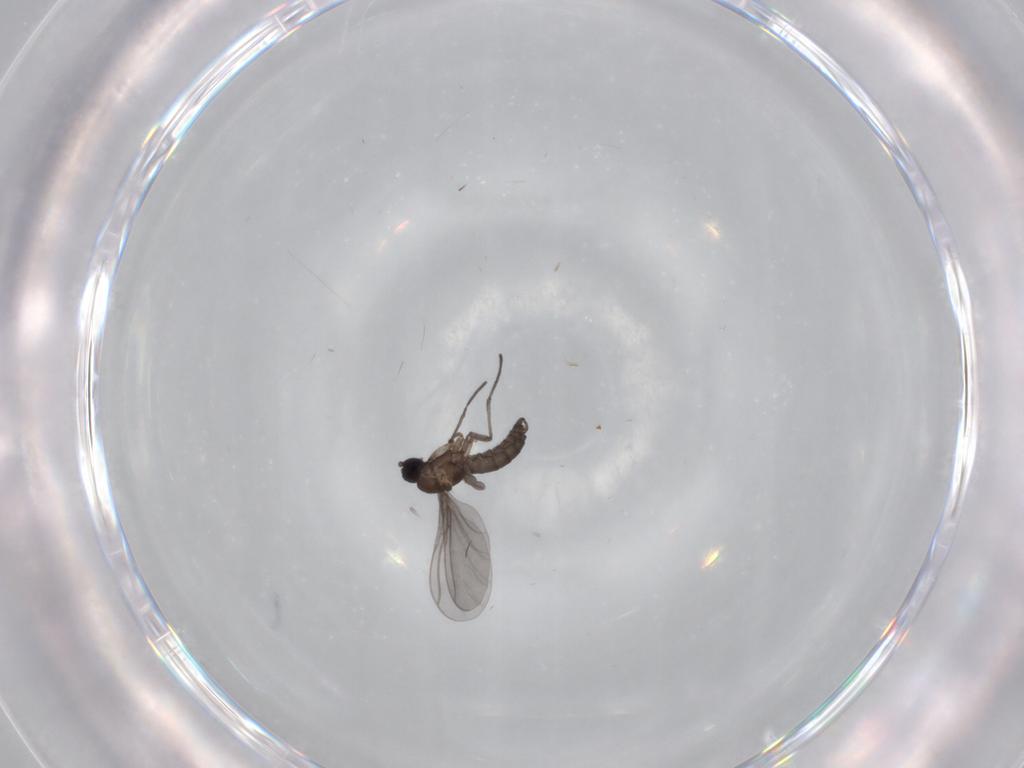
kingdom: Animalia
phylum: Arthropoda
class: Insecta
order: Diptera
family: Sciaridae
